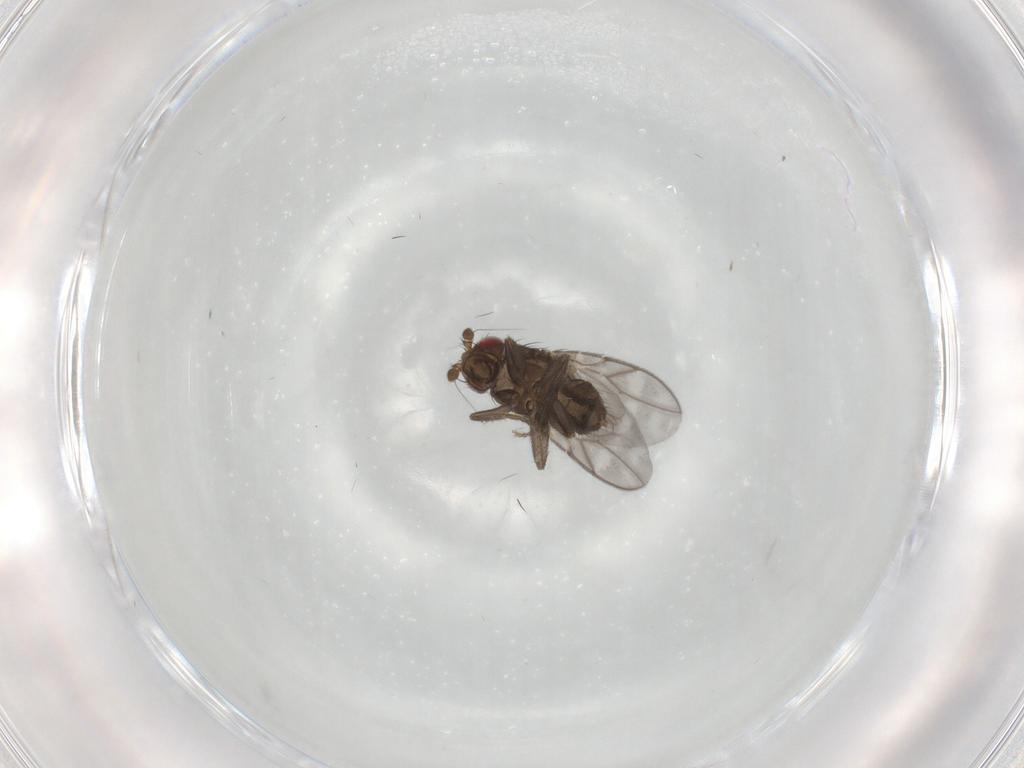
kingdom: Animalia
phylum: Arthropoda
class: Insecta
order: Diptera
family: Sphaeroceridae
